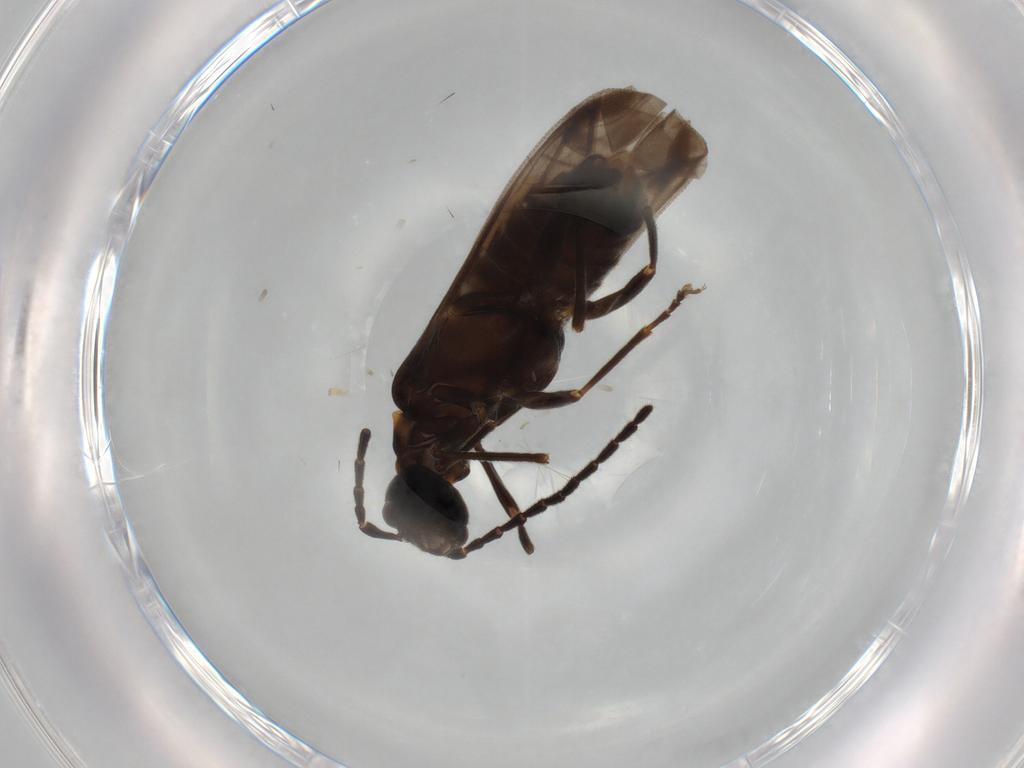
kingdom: Animalia
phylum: Arthropoda
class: Insecta
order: Coleoptera
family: Cantharidae
